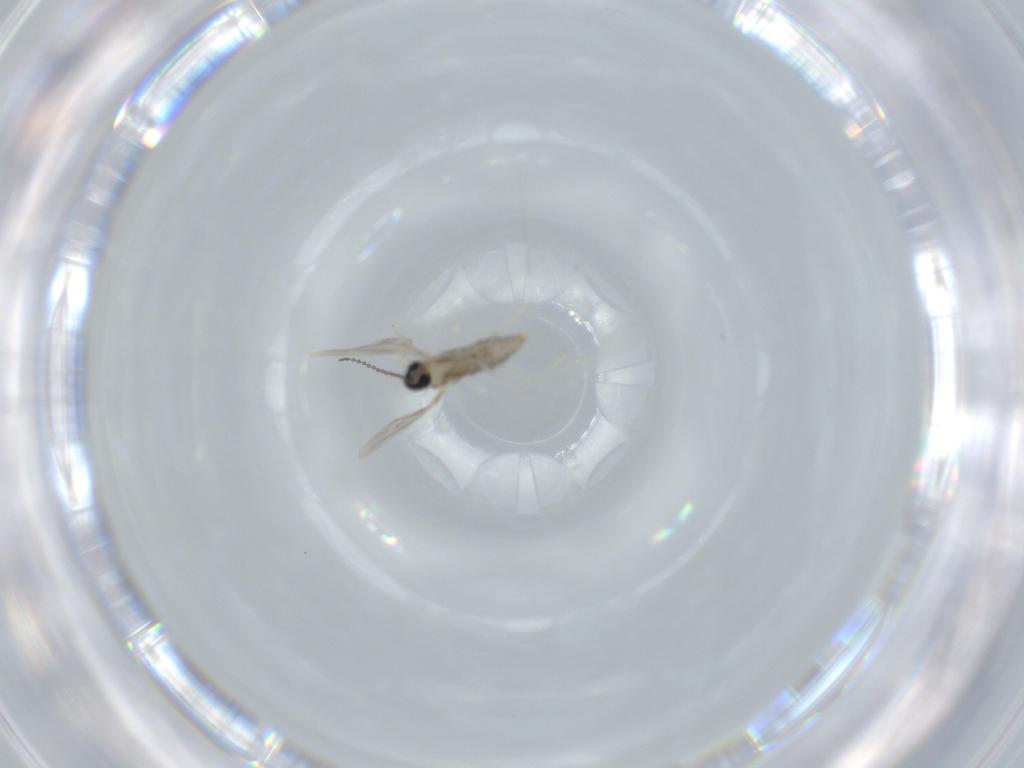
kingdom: Animalia
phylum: Arthropoda
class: Insecta
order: Diptera
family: Cecidomyiidae
